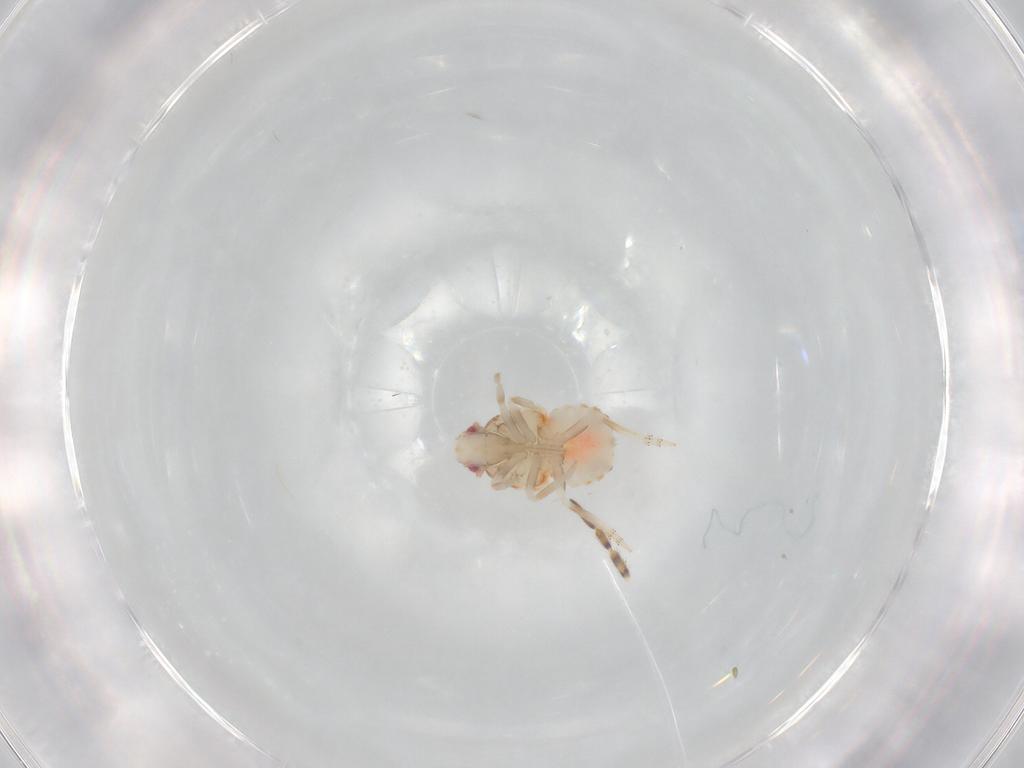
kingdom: Animalia
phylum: Arthropoda
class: Insecta
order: Hemiptera
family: Flatidae
